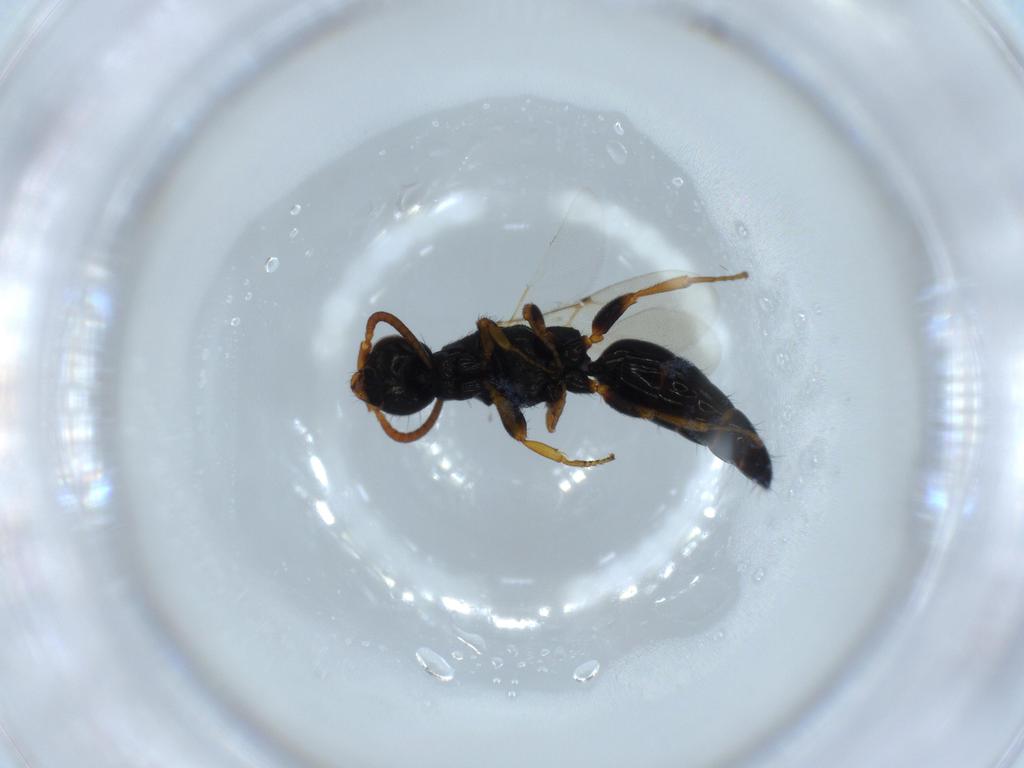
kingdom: Animalia
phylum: Arthropoda
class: Insecta
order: Hymenoptera
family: Bethylidae
